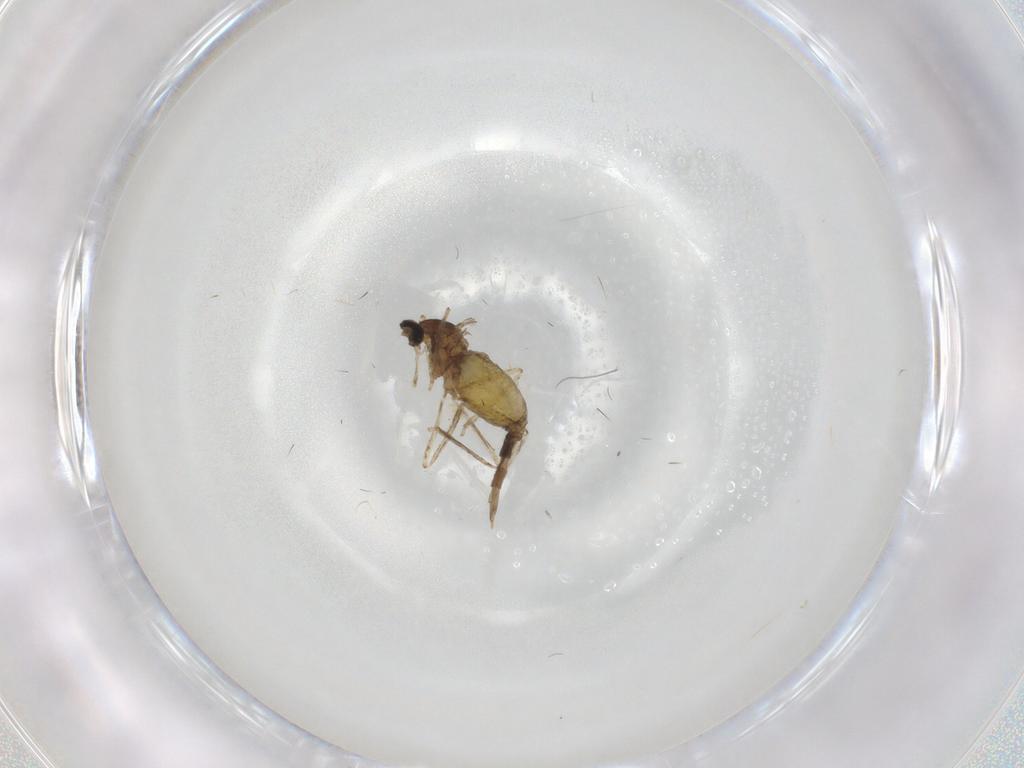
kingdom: Animalia
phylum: Arthropoda
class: Insecta
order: Diptera
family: Cecidomyiidae
